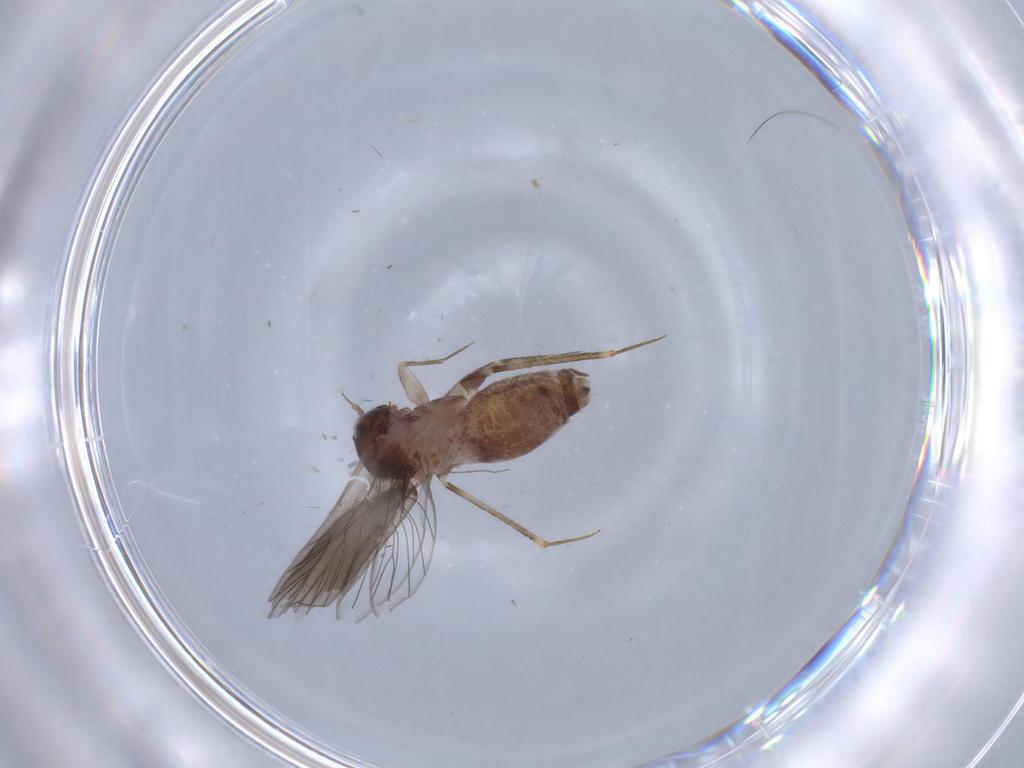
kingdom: Animalia
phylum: Arthropoda
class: Insecta
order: Psocodea
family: Lepidopsocidae
